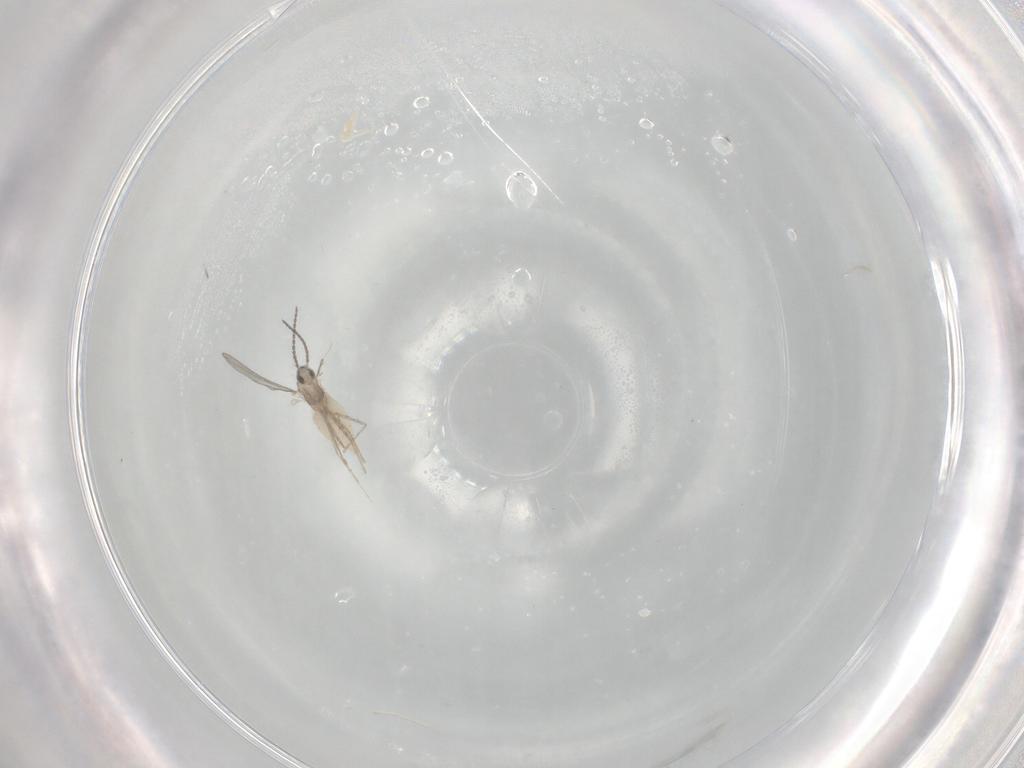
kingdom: Animalia
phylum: Arthropoda
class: Insecta
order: Diptera
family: Cecidomyiidae
